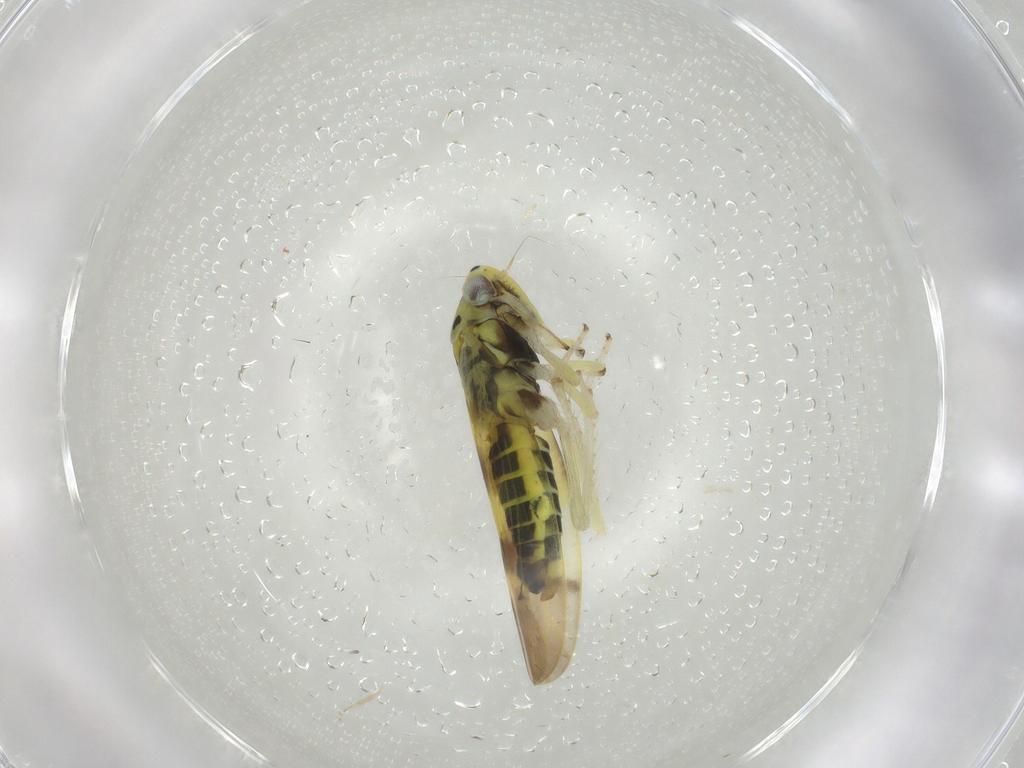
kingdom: Animalia
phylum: Arthropoda
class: Insecta
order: Hemiptera
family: Cicadellidae
